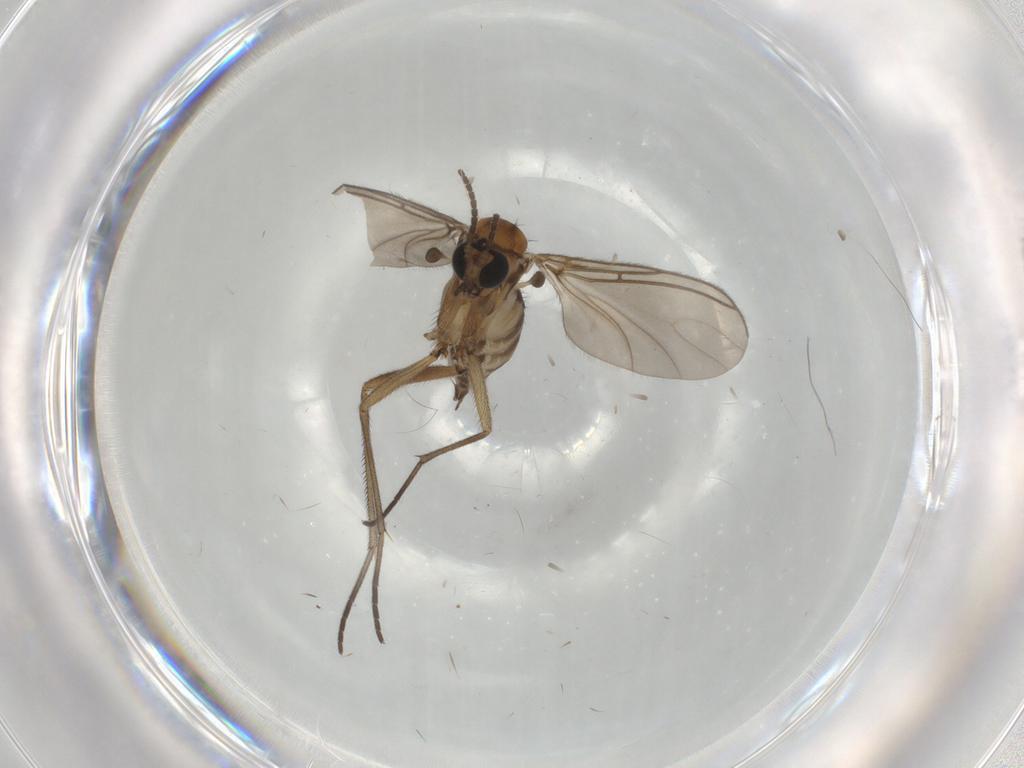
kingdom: Animalia
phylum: Arthropoda
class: Insecta
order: Diptera
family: Sciaridae
